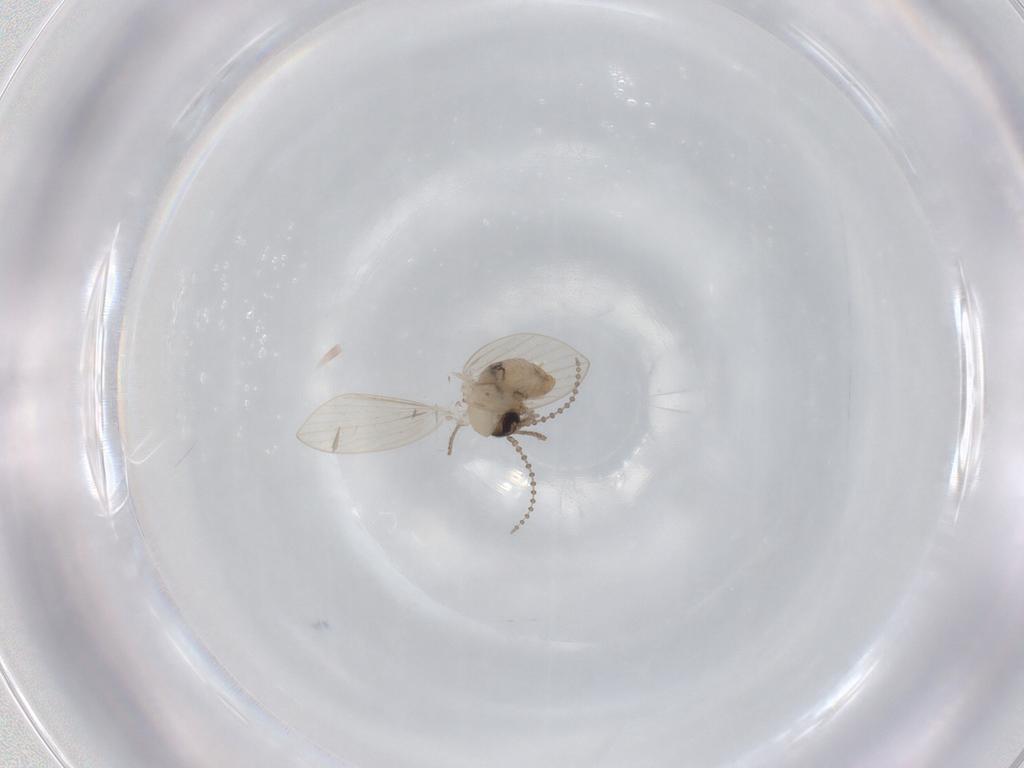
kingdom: Animalia
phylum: Arthropoda
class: Insecta
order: Diptera
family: Psychodidae
